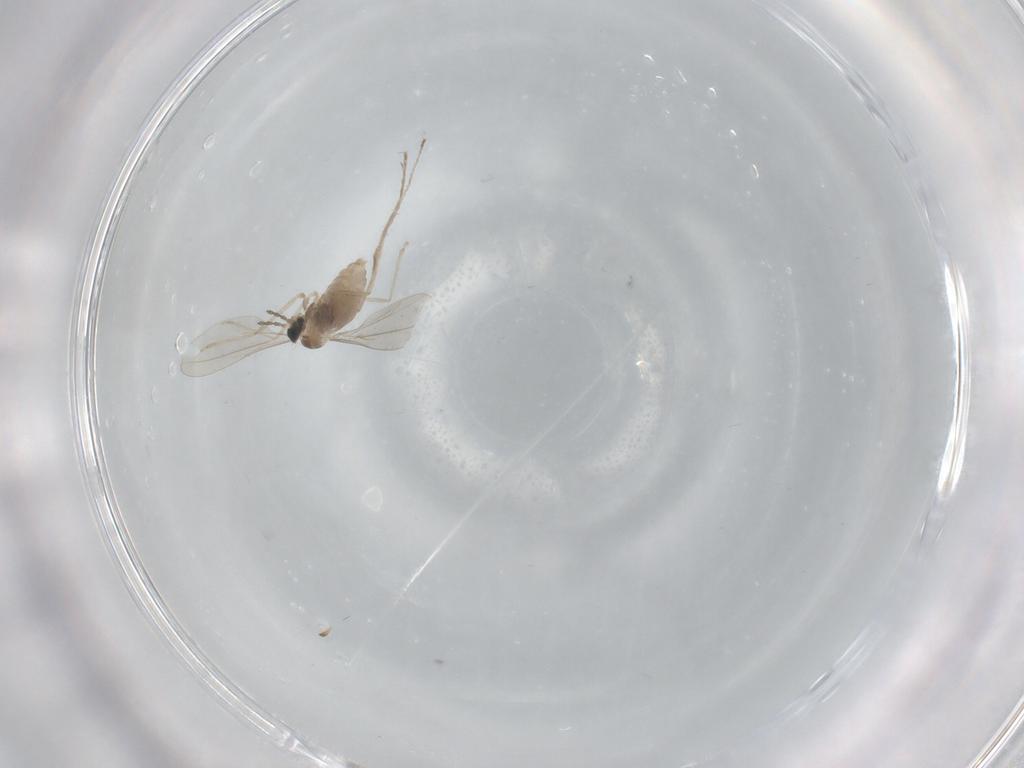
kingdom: Animalia
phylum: Arthropoda
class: Insecta
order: Diptera
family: Cecidomyiidae
